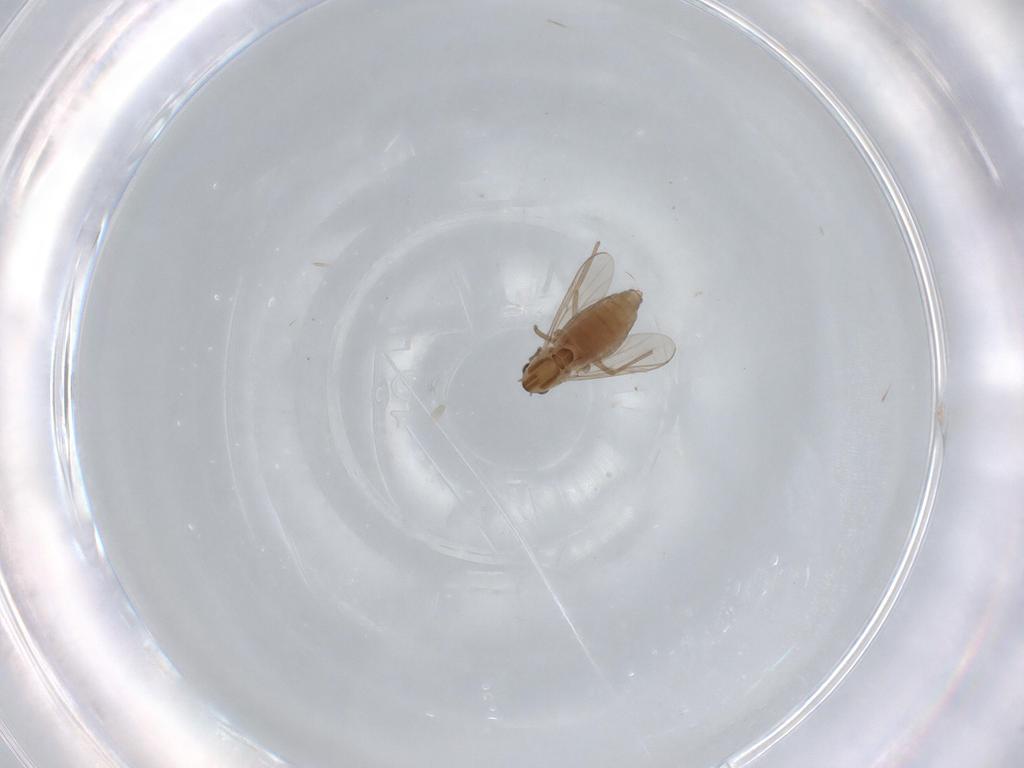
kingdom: Animalia
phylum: Arthropoda
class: Insecta
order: Diptera
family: Chironomidae
